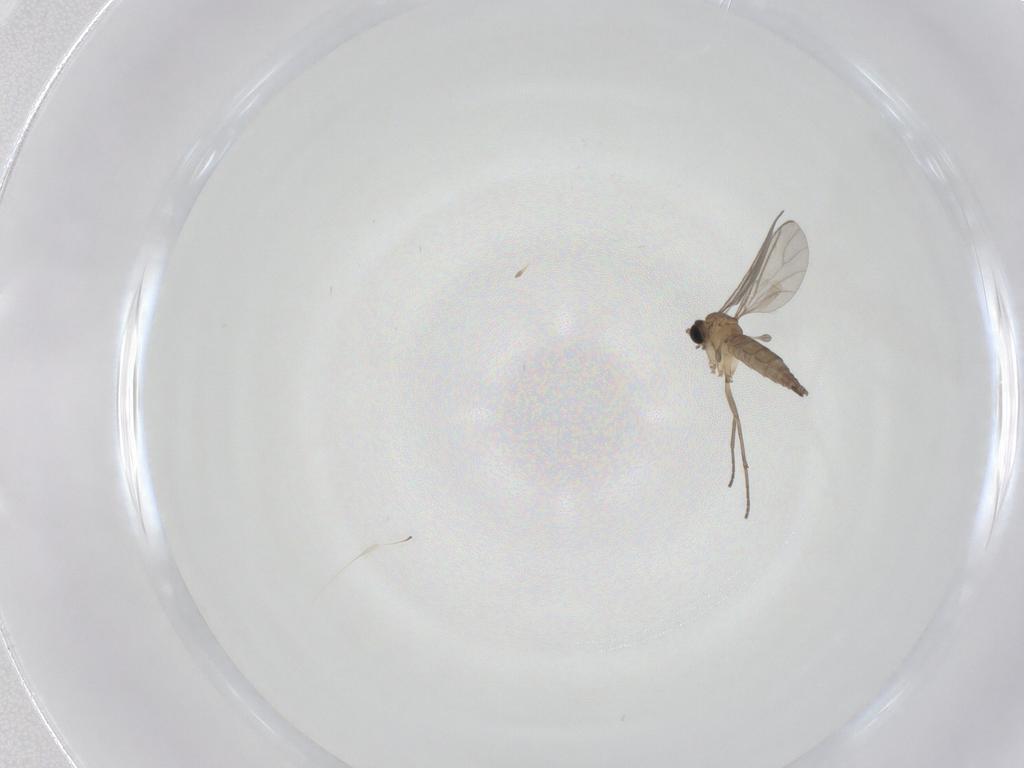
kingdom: Animalia
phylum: Arthropoda
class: Insecta
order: Diptera
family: Sciaridae
